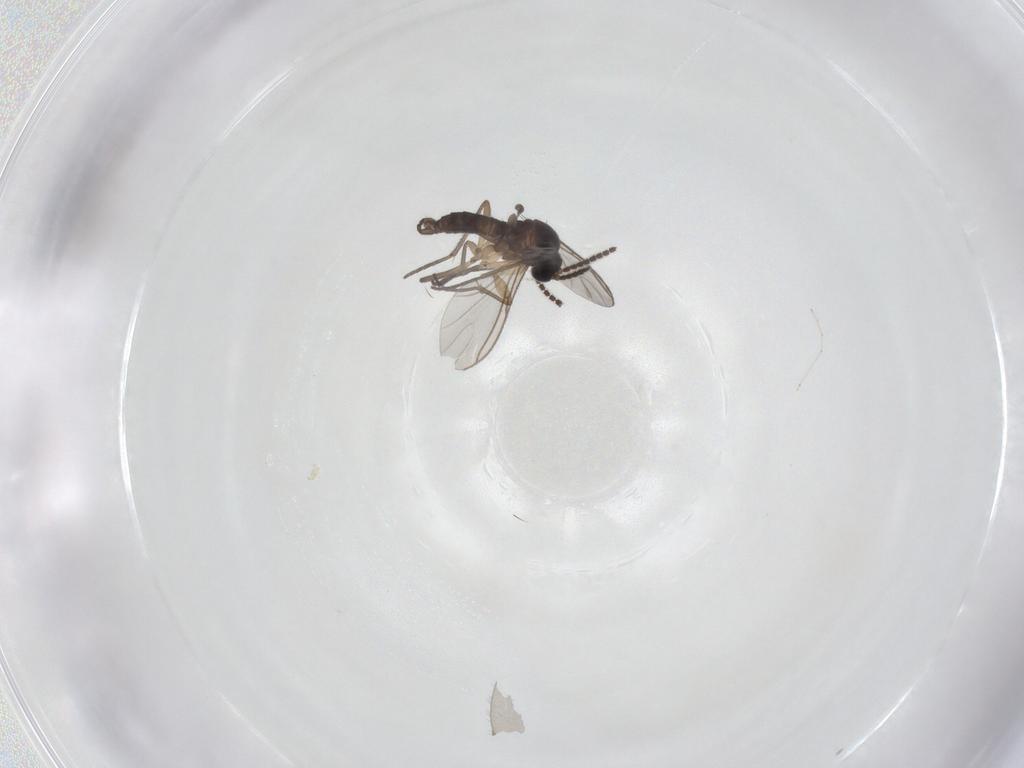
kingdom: Animalia
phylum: Arthropoda
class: Insecta
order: Diptera
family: Sciaridae
